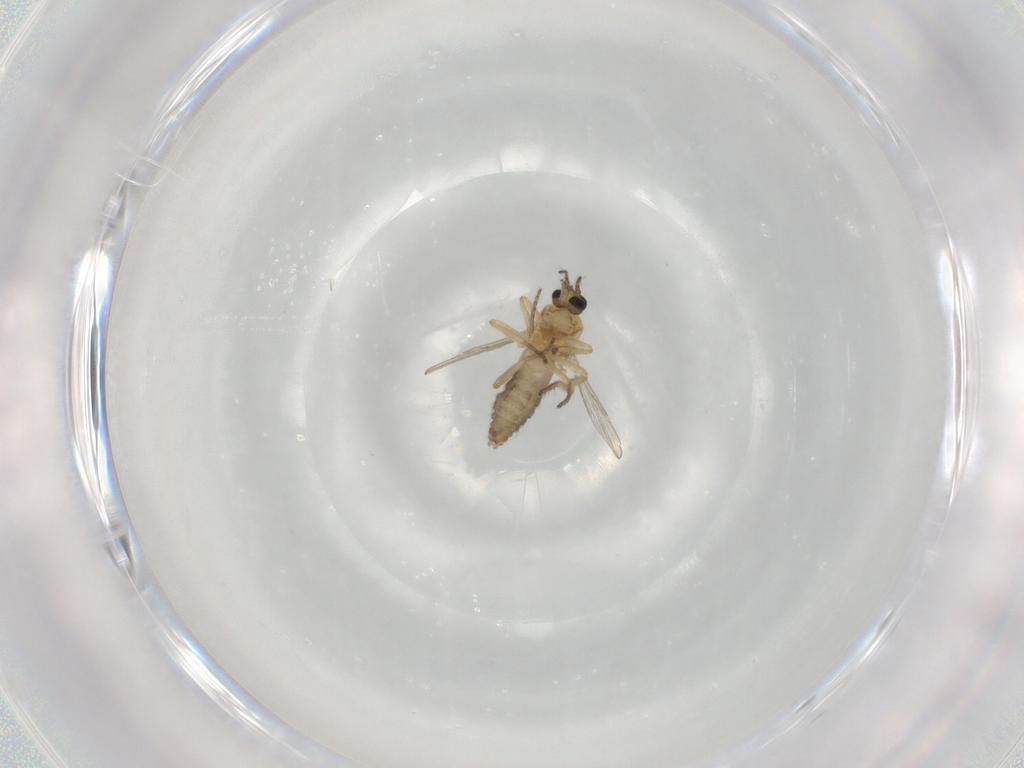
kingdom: Animalia
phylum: Arthropoda
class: Insecta
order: Diptera
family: Ceratopogonidae
